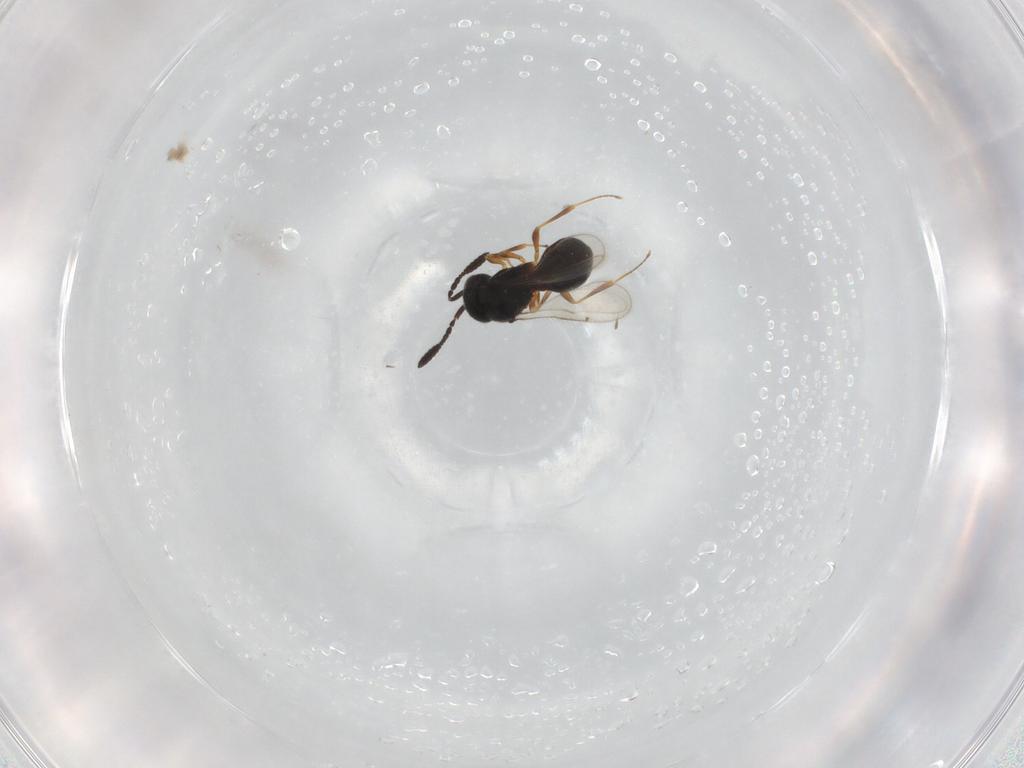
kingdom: Animalia
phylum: Arthropoda
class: Insecta
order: Hymenoptera
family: Scelionidae
